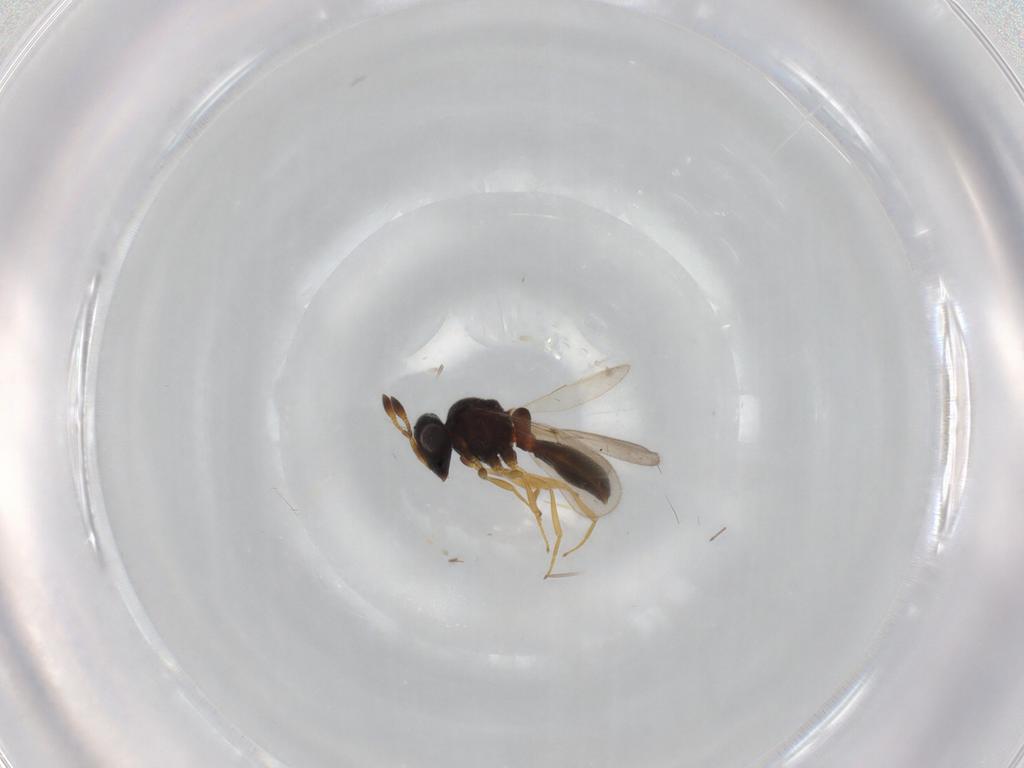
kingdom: Animalia
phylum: Arthropoda
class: Insecta
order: Hymenoptera
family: Scelionidae
